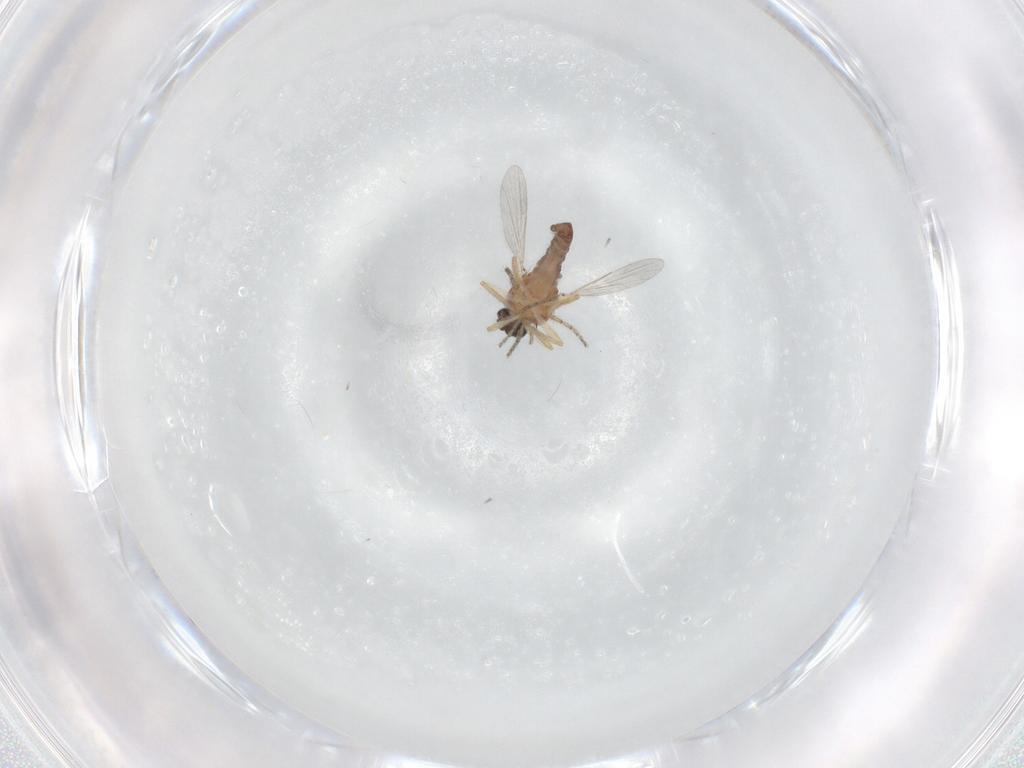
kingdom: Animalia
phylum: Arthropoda
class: Insecta
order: Diptera
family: Ceratopogonidae
